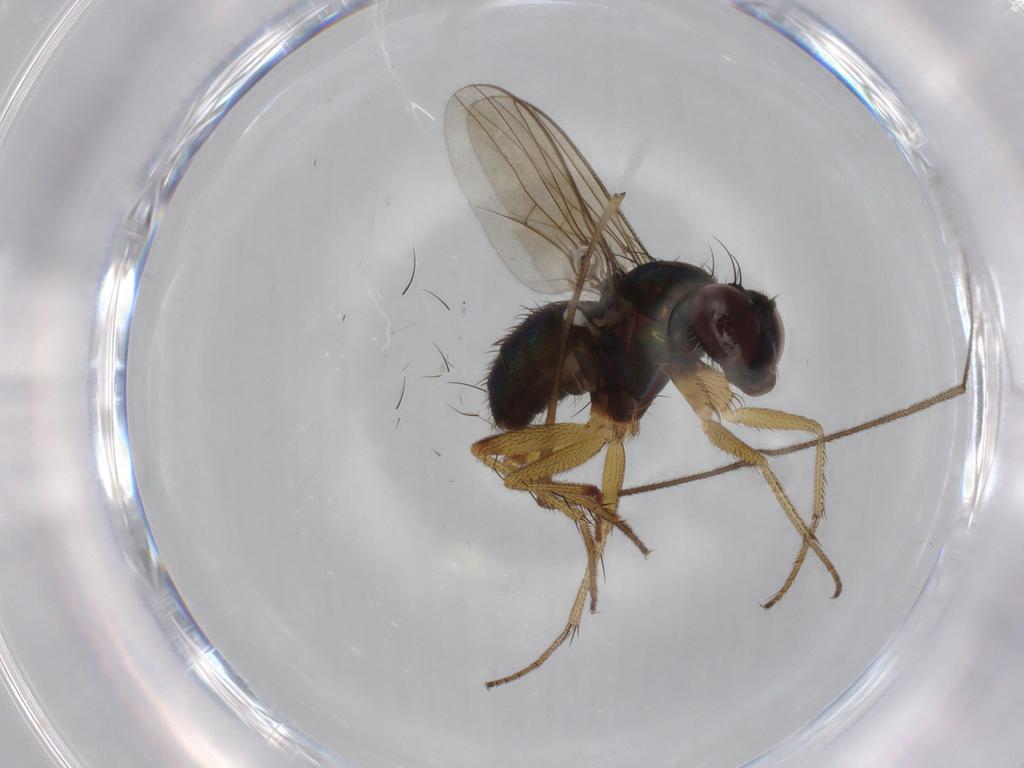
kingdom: Animalia
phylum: Arthropoda
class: Insecta
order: Diptera
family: Dolichopodidae
